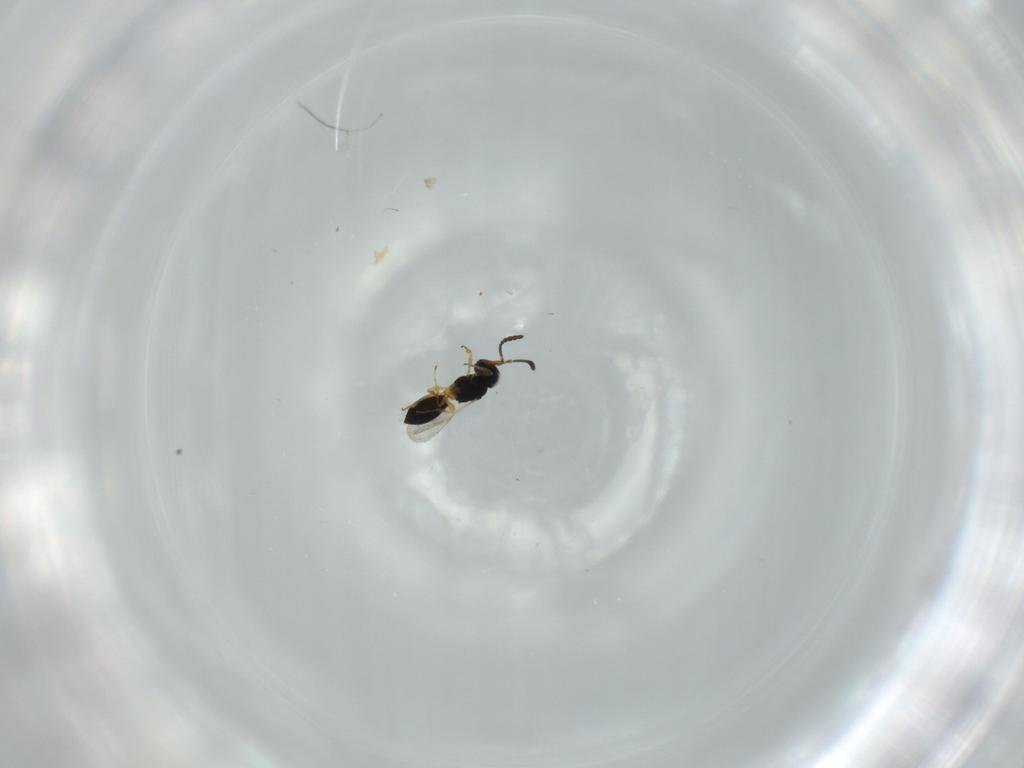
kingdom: Animalia
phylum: Arthropoda
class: Insecta
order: Hymenoptera
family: Scelionidae
